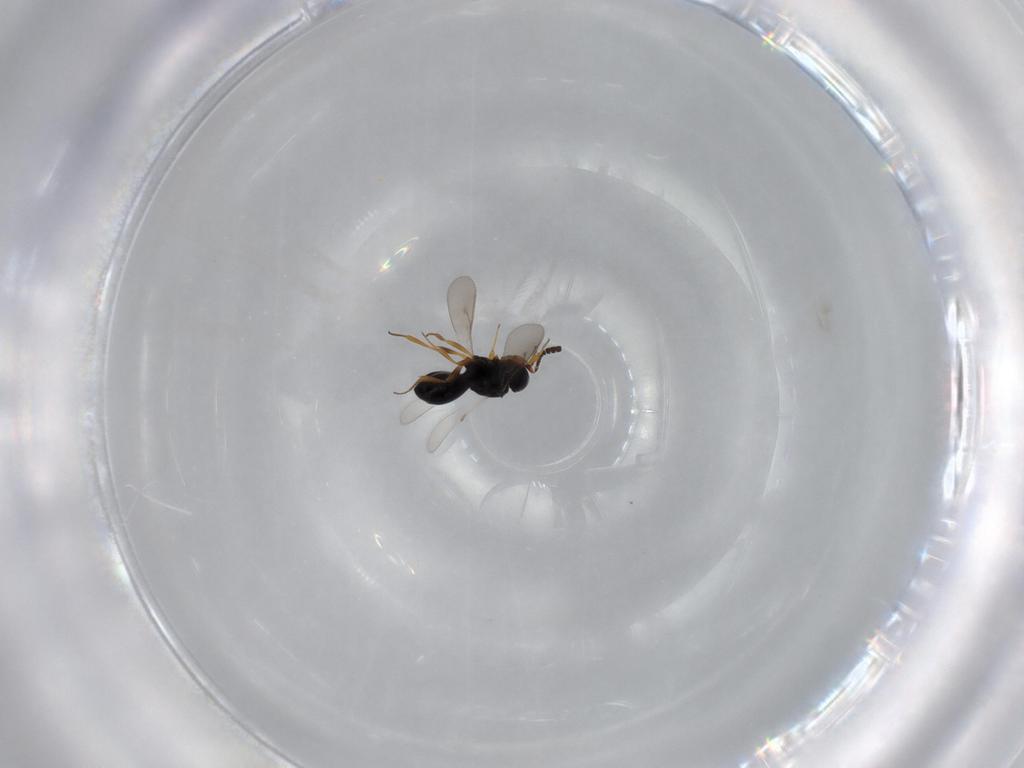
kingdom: Animalia
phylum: Arthropoda
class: Insecta
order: Hymenoptera
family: Scelionidae
